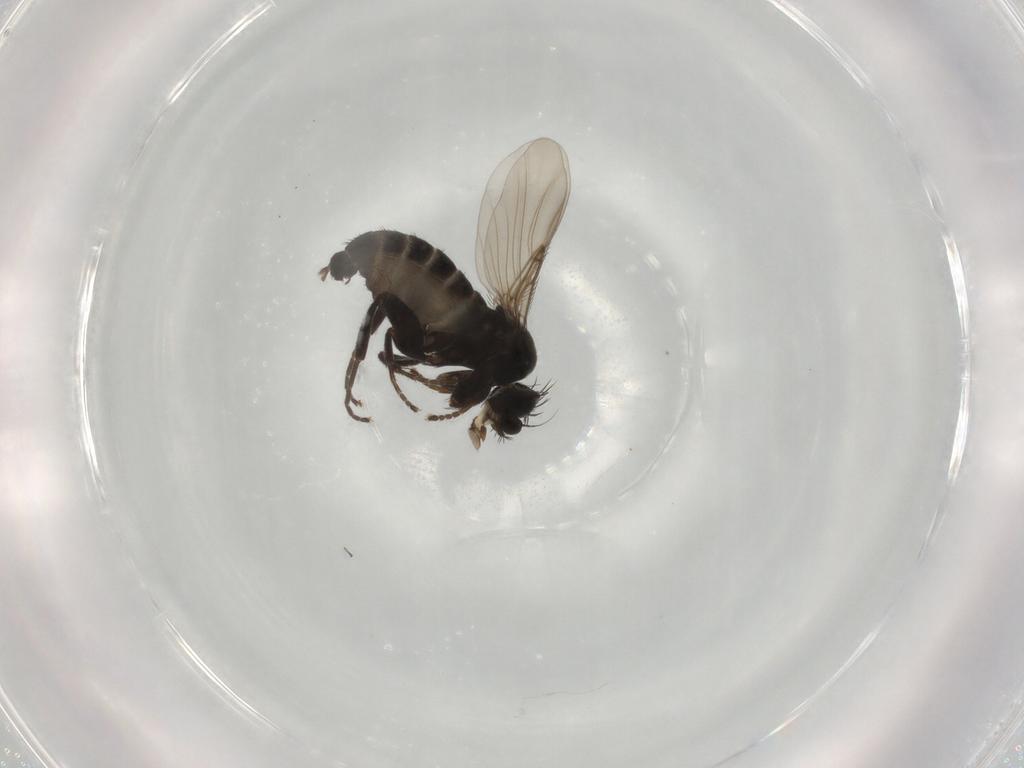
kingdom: Animalia
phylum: Arthropoda
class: Insecta
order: Diptera
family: Phoridae
